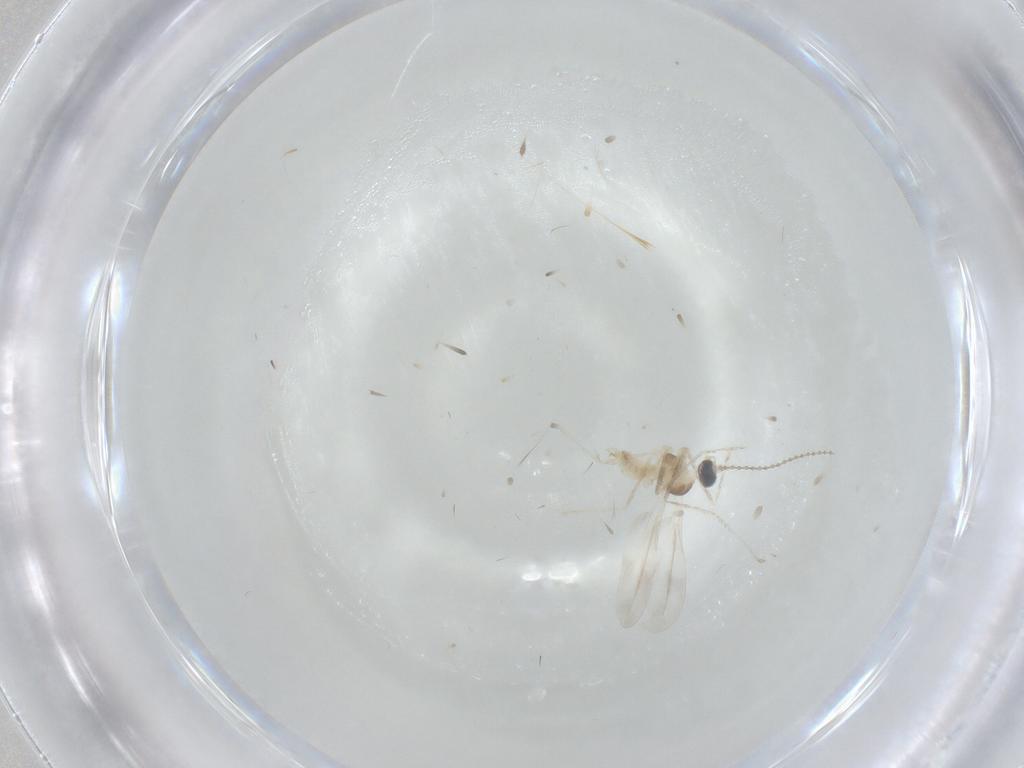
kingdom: Animalia
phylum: Arthropoda
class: Insecta
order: Diptera
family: Cecidomyiidae
